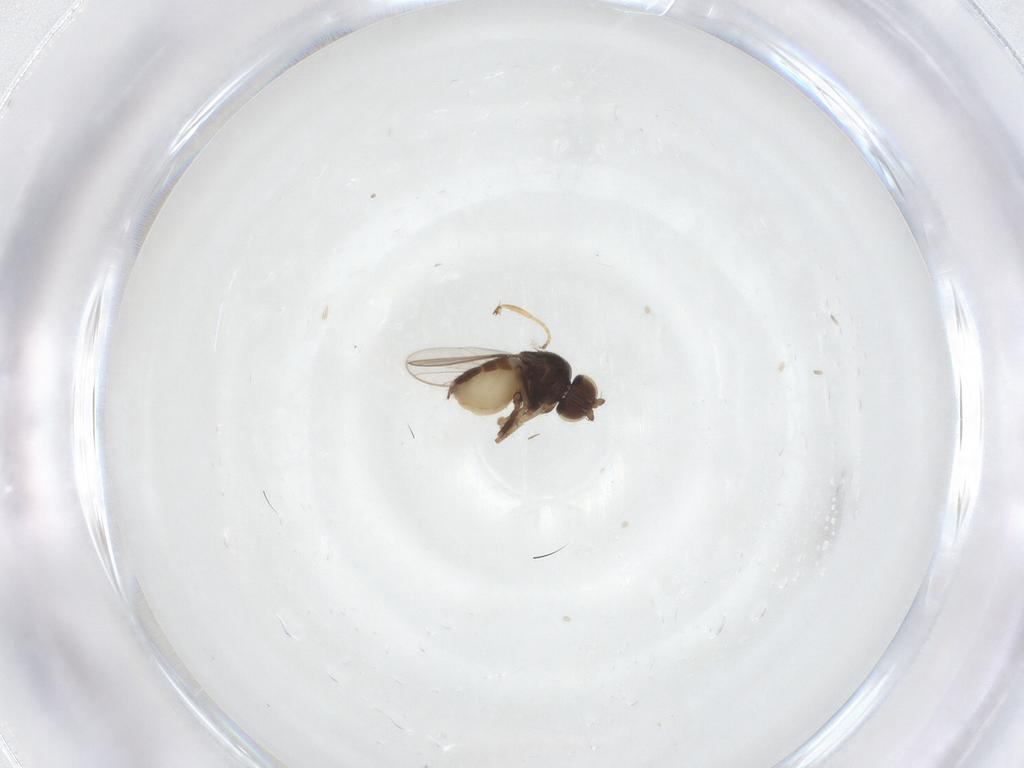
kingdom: Animalia
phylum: Arthropoda
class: Insecta
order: Diptera
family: Chloropidae
